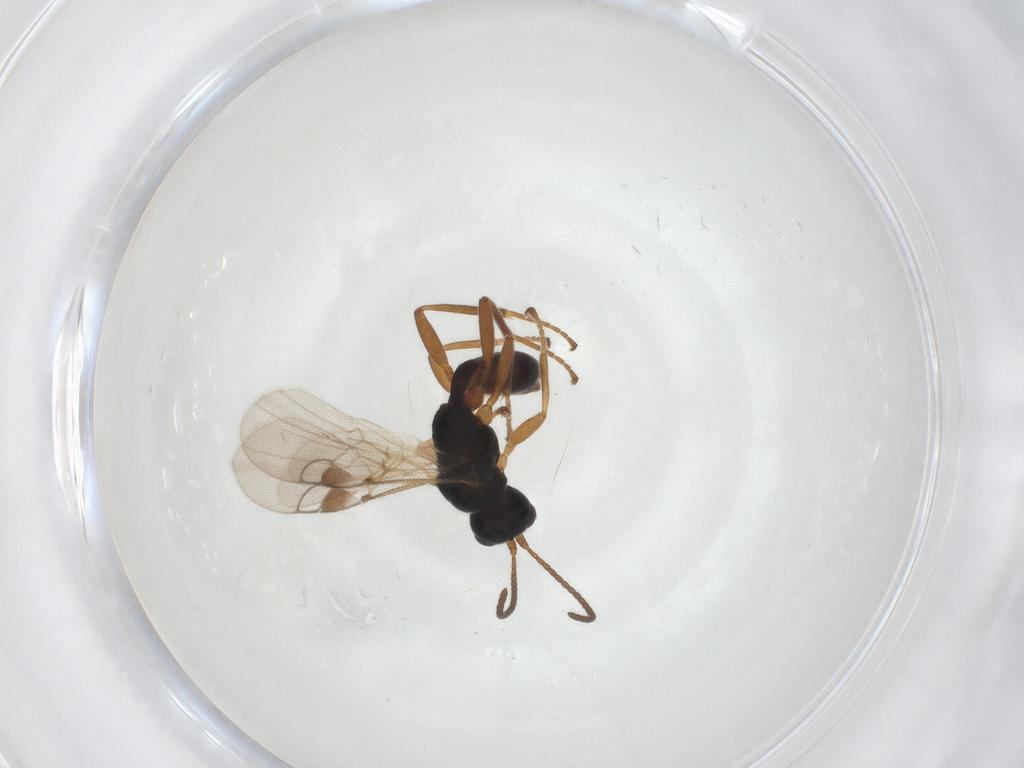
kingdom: Animalia
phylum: Arthropoda
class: Insecta
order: Hymenoptera
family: Braconidae
